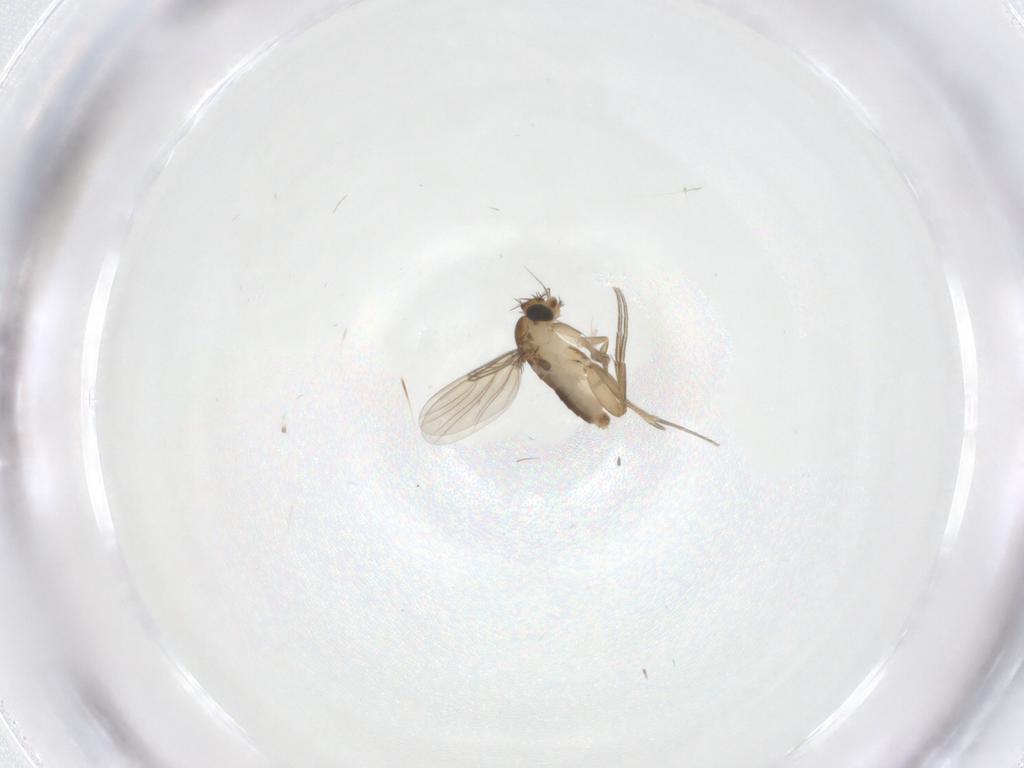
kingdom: Animalia
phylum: Arthropoda
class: Insecta
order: Diptera
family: Phoridae
